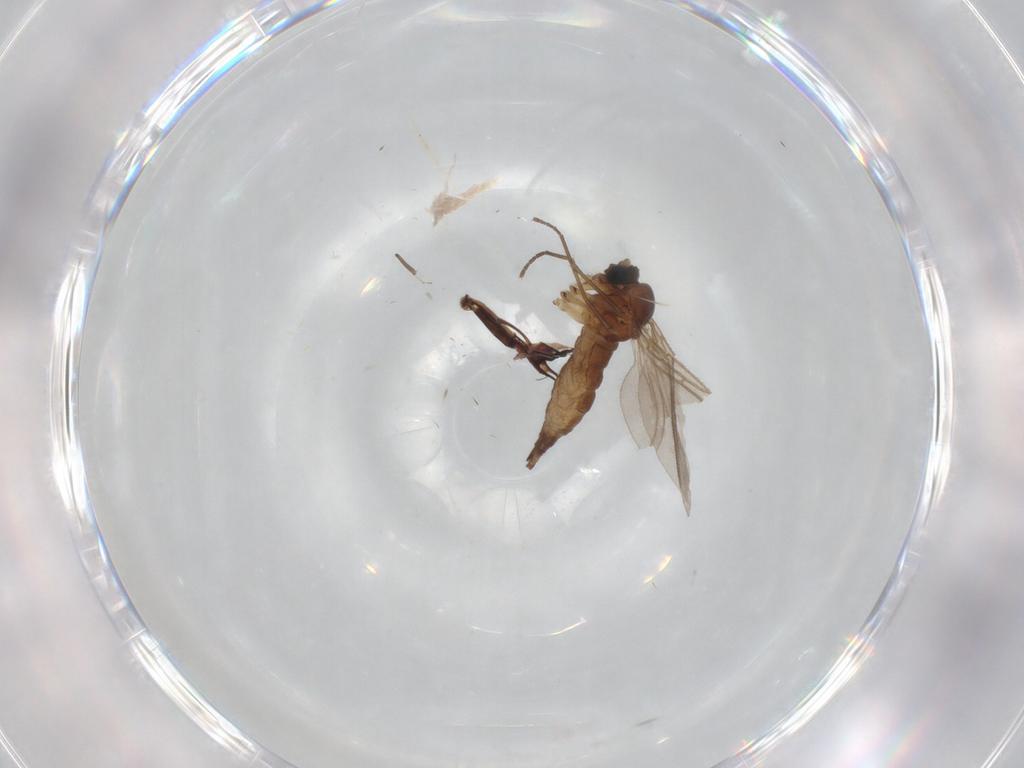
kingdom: Animalia
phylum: Arthropoda
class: Insecta
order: Diptera
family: Sciaridae
